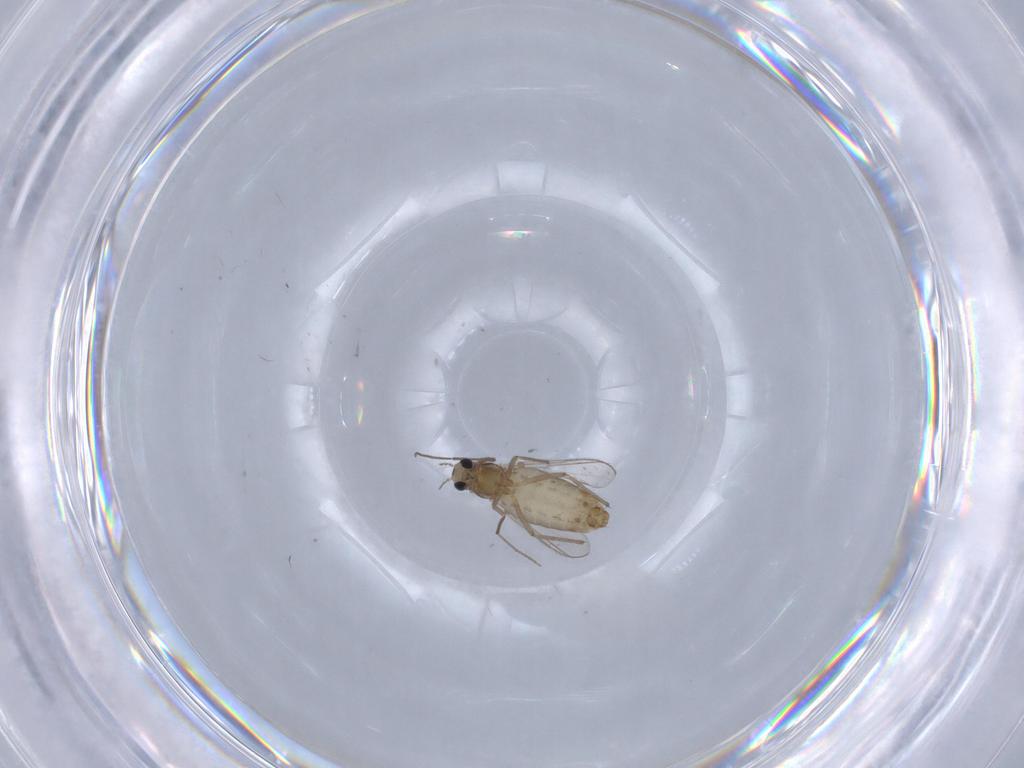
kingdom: Animalia
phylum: Arthropoda
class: Insecta
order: Diptera
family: Chironomidae
